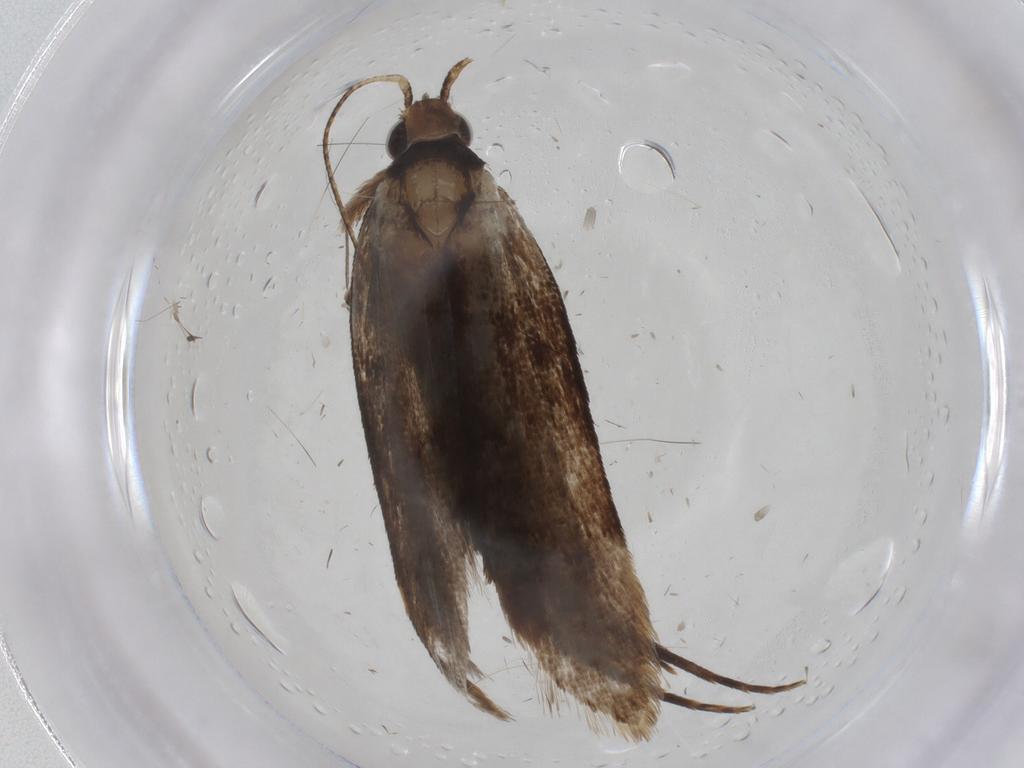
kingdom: Animalia
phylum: Arthropoda
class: Insecta
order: Lepidoptera
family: Gelechiidae
